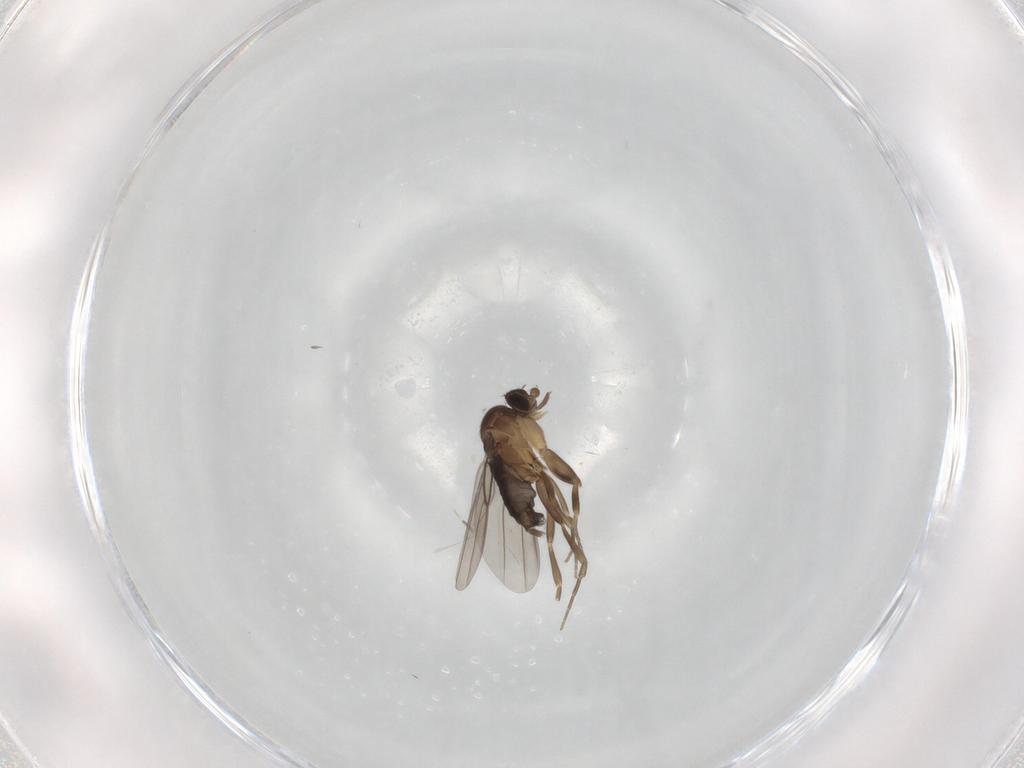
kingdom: Animalia
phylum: Arthropoda
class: Insecta
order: Diptera
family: Phoridae
